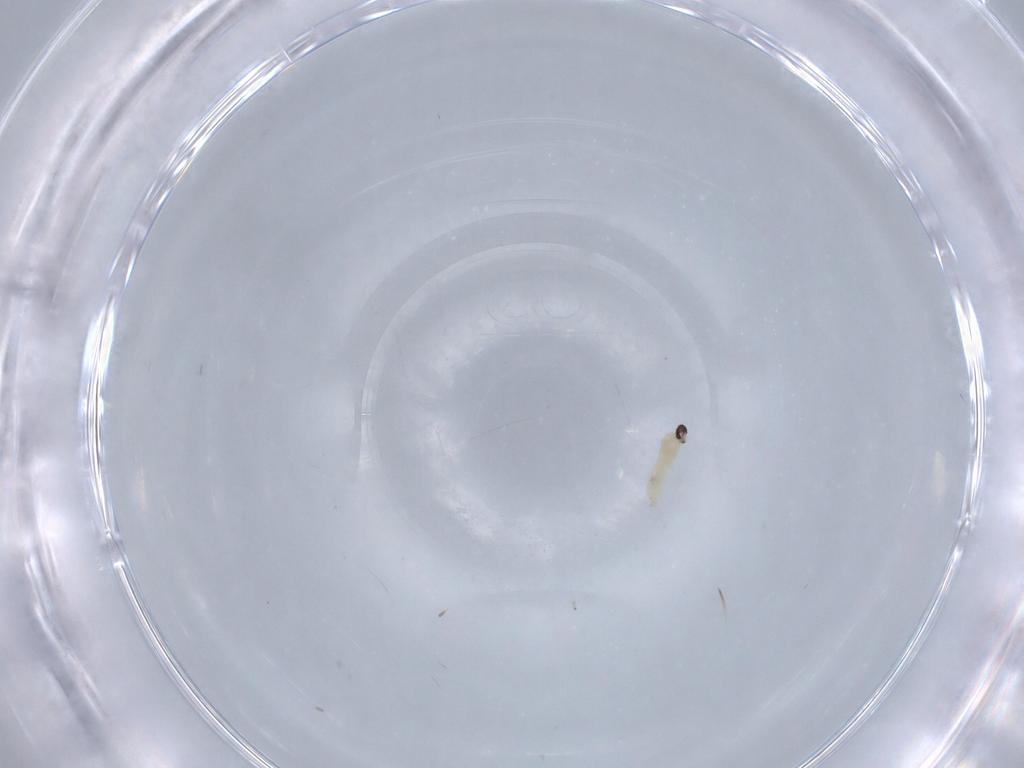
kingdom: Animalia
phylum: Arthropoda
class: Insecta
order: Diptera
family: Cecidomyiidae
